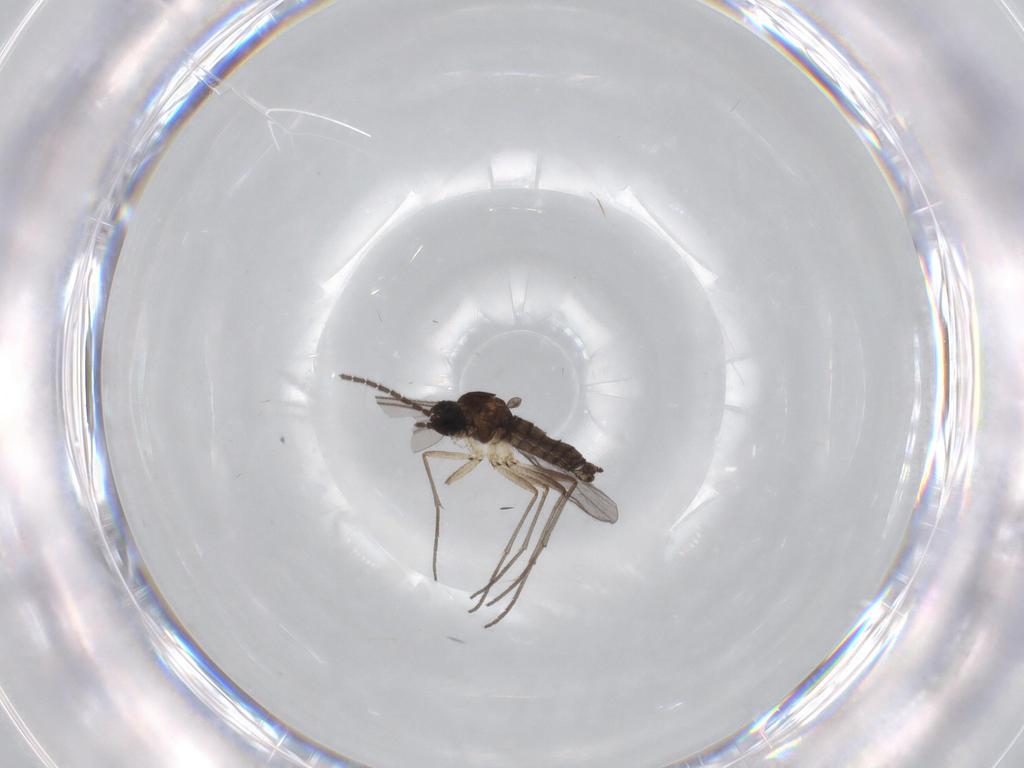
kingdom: Animalia
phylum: Arthropoda
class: Insecta
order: Diptera
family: Sciaridae
